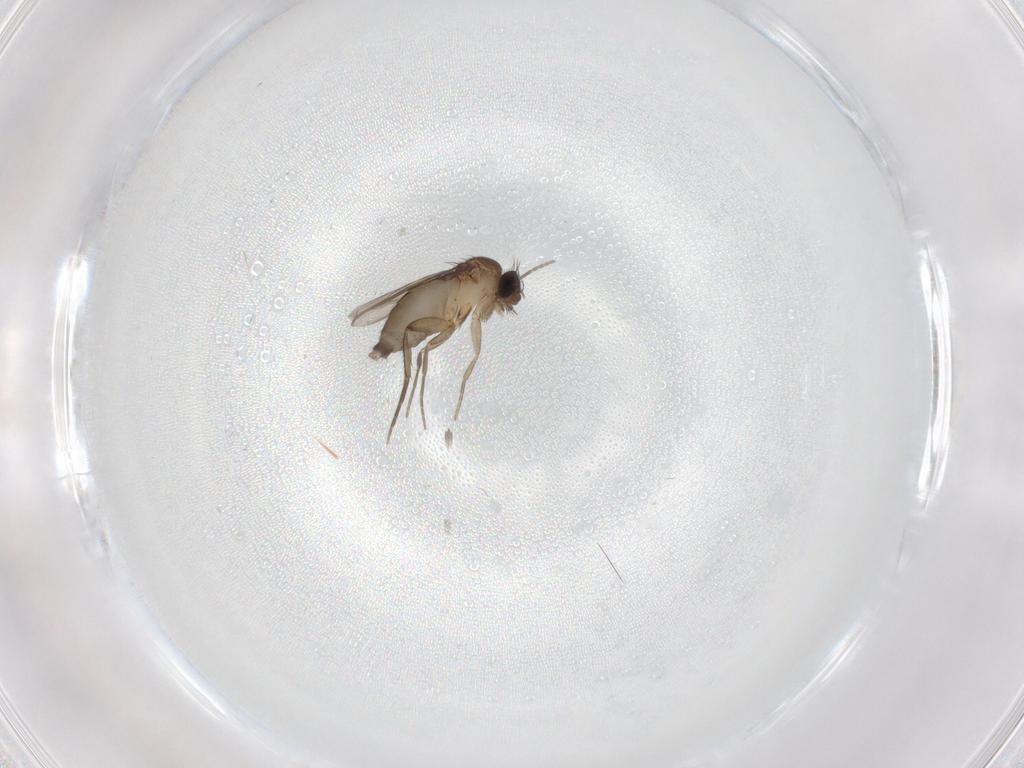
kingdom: Animalia
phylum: Arthropoda
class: Insecta
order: Diptera
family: Phoridae
